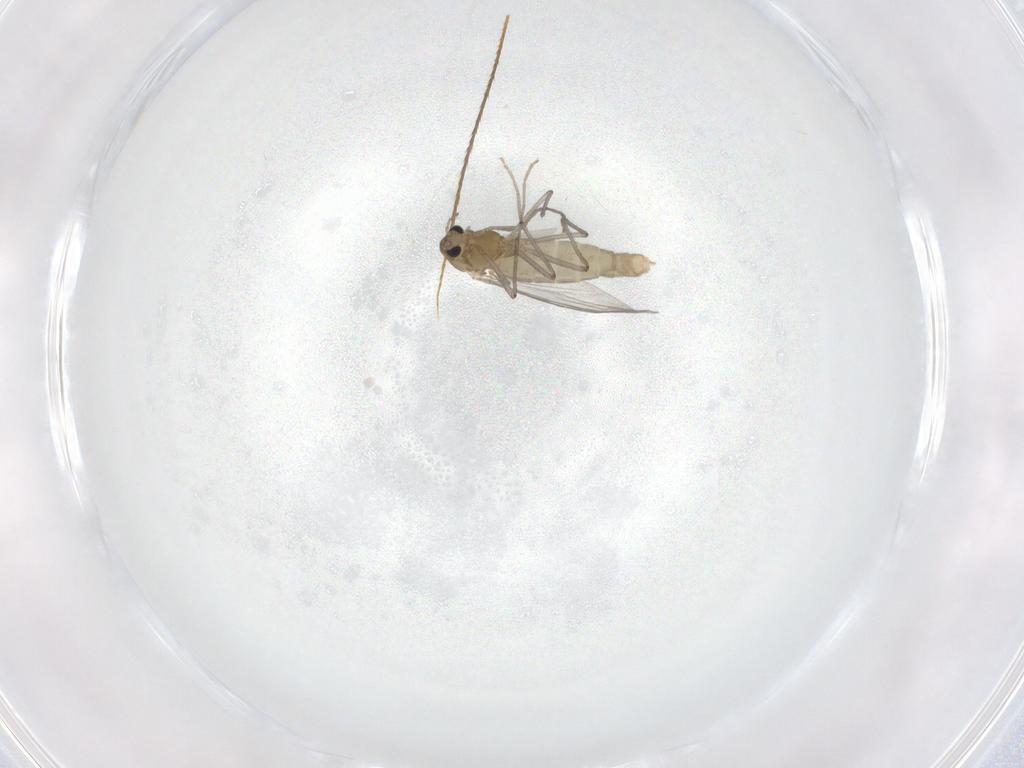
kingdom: Animalia
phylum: Arthropoda
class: Insecta
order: Diptera
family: Chironomidae
